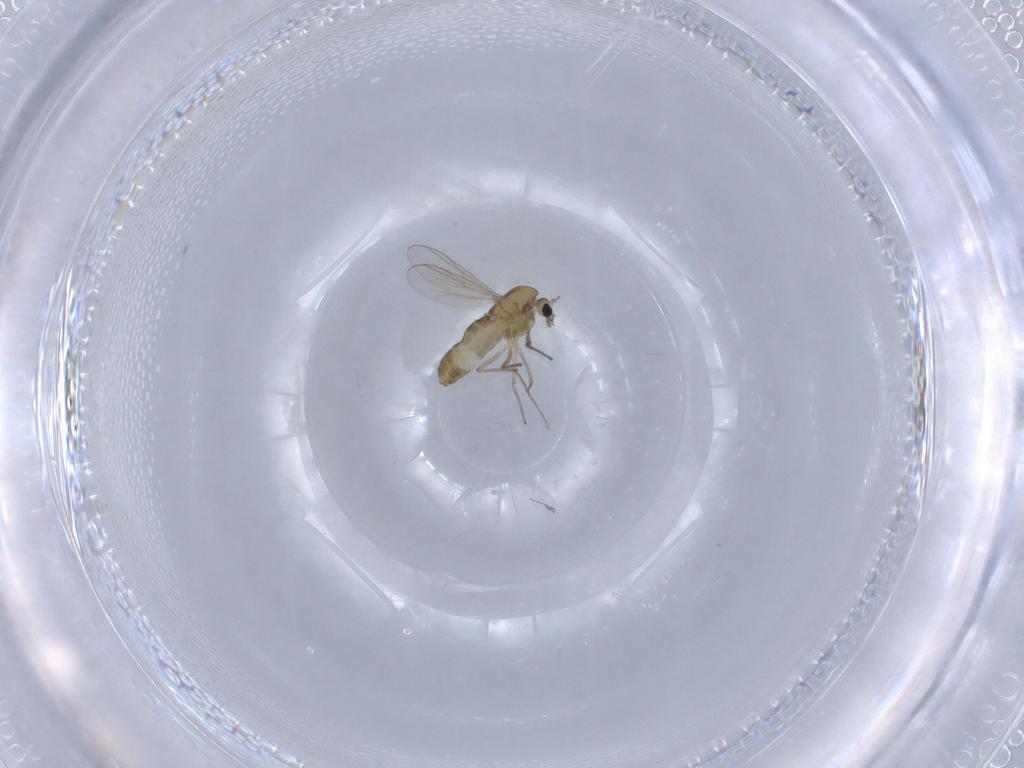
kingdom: Animalia
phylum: Arthropoda
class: Insecta
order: Diptera
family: Chironomidae
